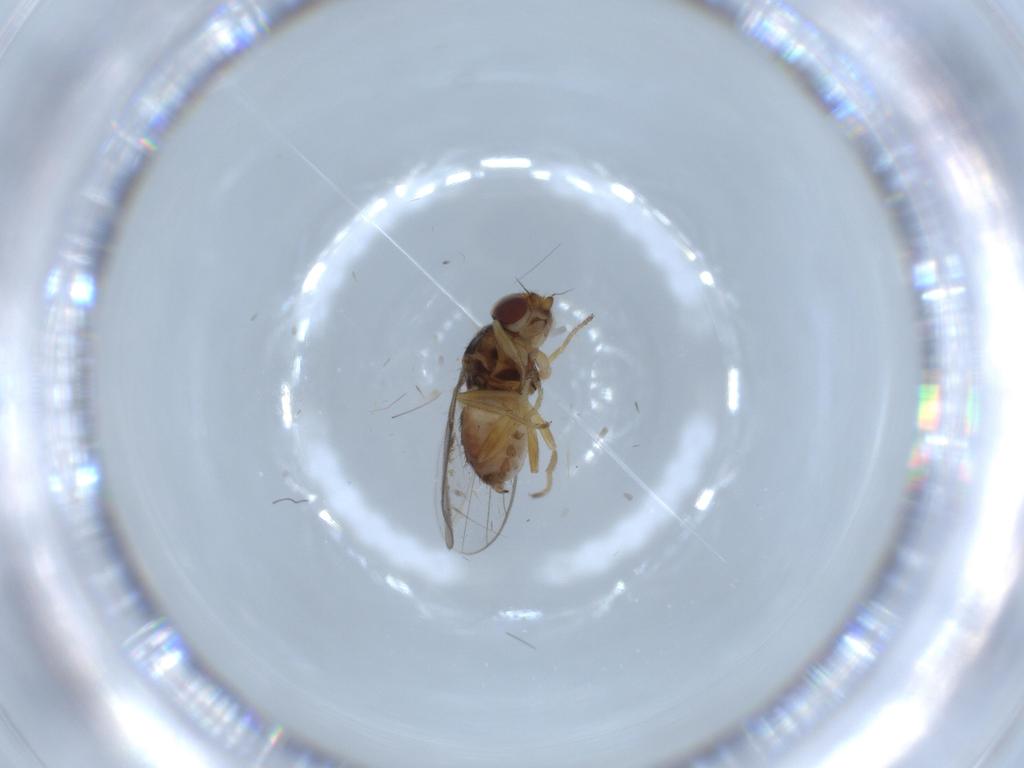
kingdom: Animalia
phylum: Arthropoda
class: Insecta
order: Diptera
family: Chloropidae
